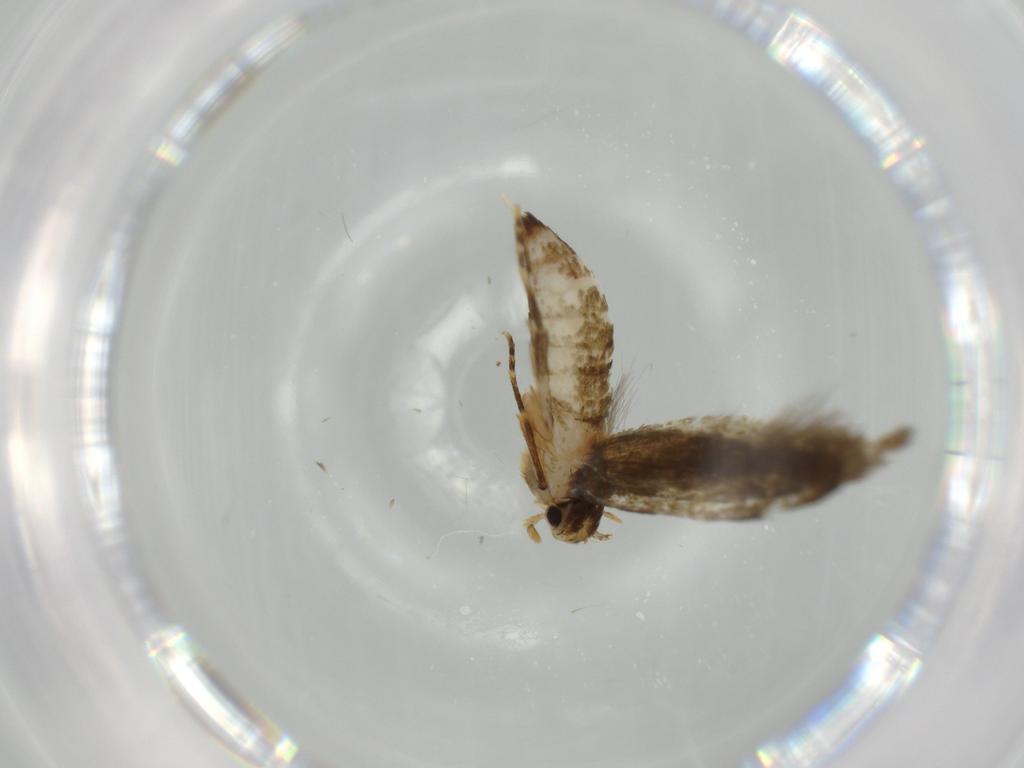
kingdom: Animalia
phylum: Arthropoda
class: Insecta
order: Lepidoptera
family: Tineidae
